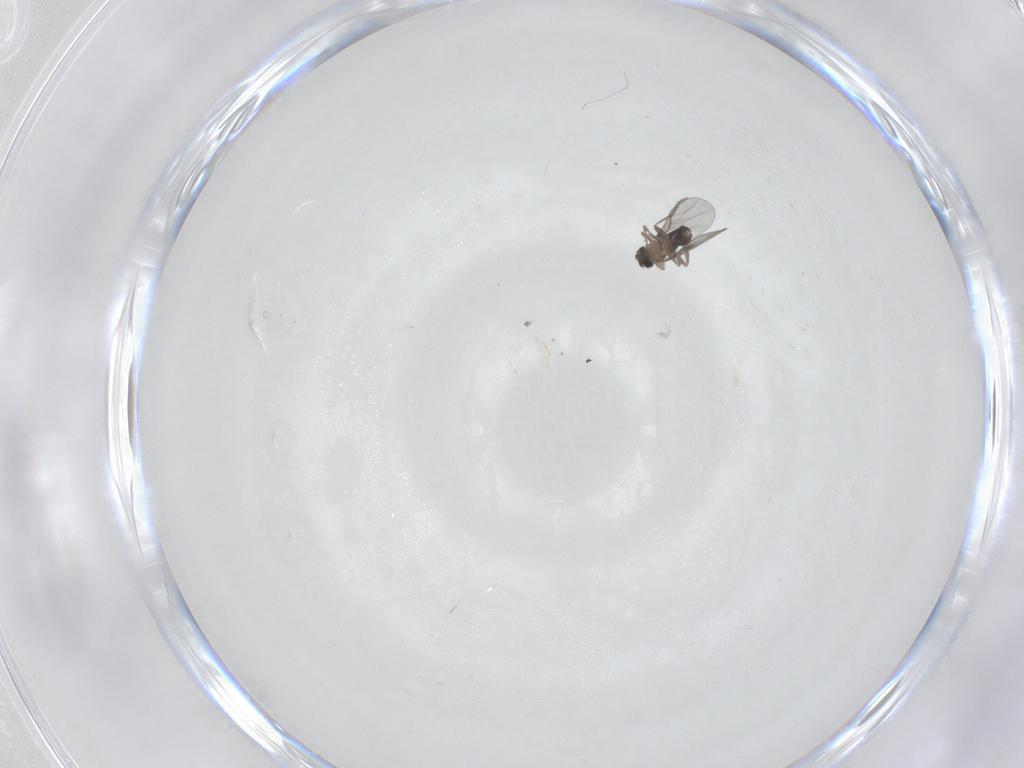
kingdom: Animalia
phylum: Arthropoda
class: Insecta
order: Diptera
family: Phoridae
